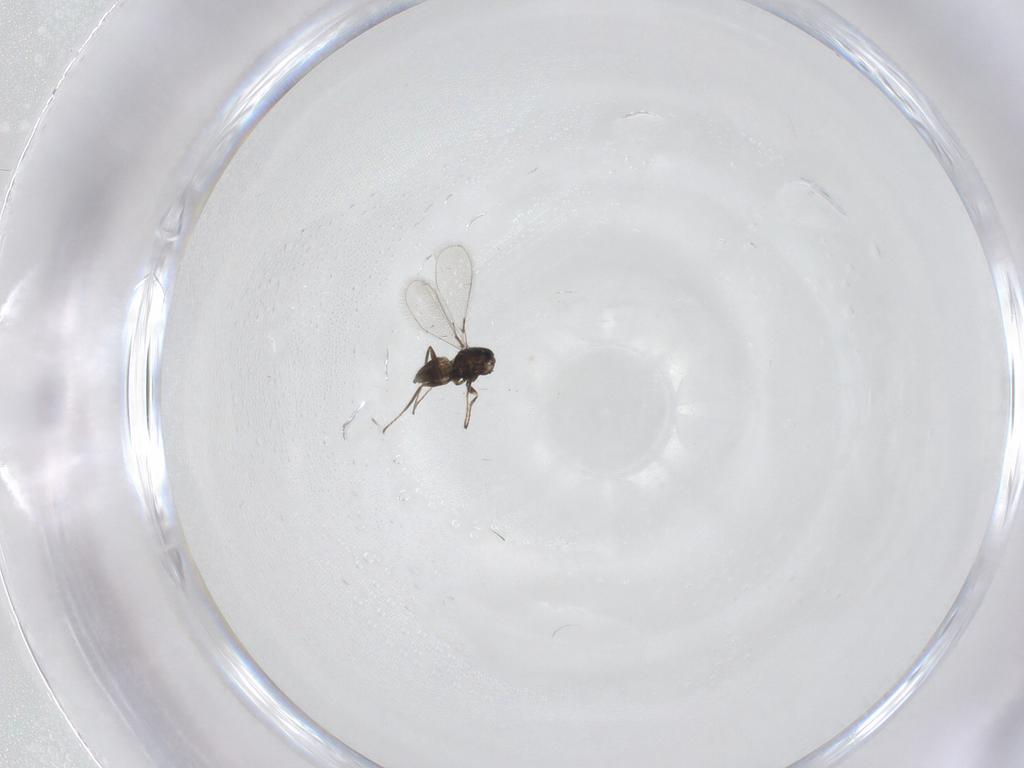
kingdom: Animalia
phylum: Arthropoda
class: Insecta
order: Hymenoptera
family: Mymaridae
